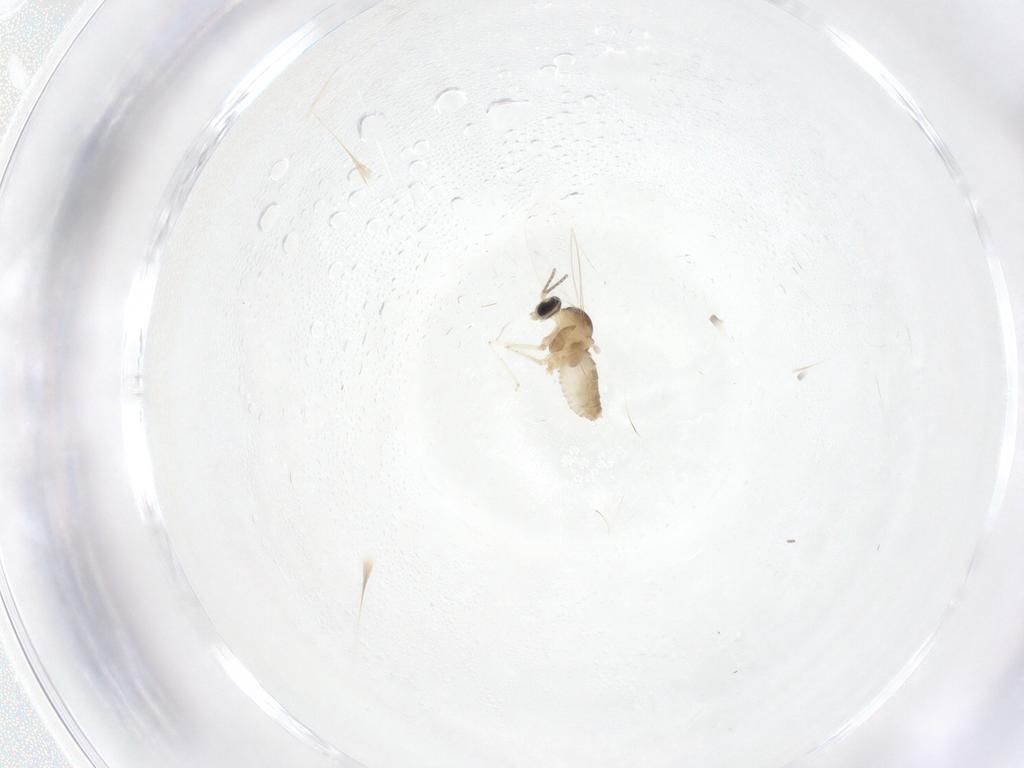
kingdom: Animalia
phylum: Arthropoda
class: Insecta
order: Diptera
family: Cecidomyiidae
